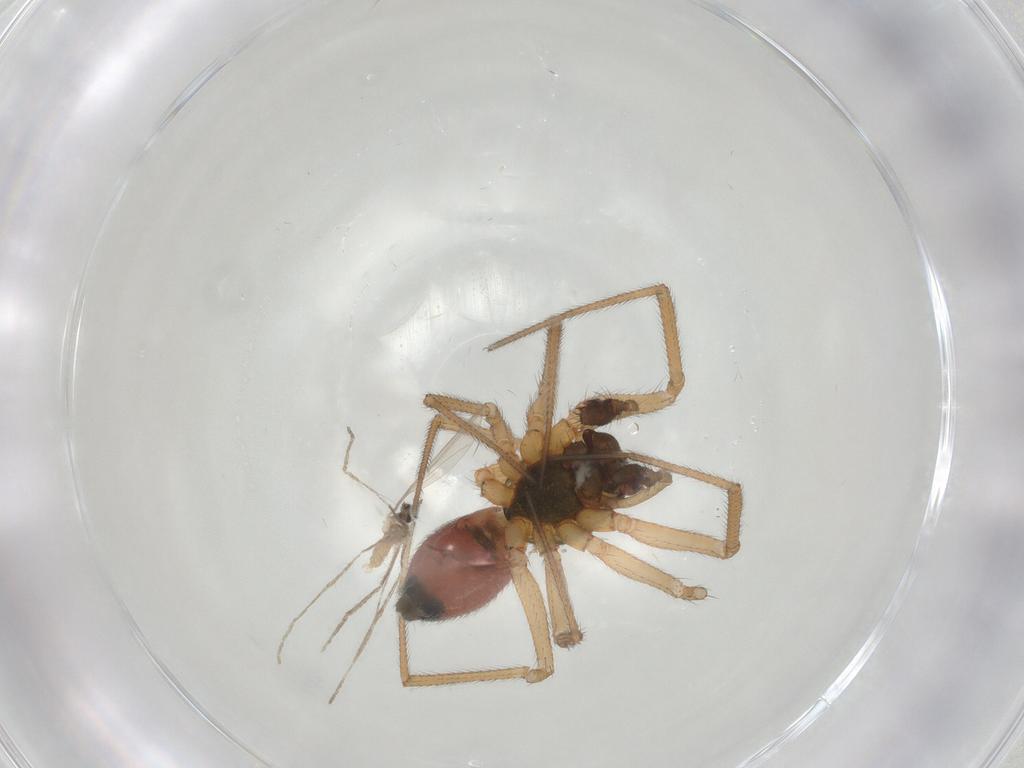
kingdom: Animalia
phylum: Arthropoda
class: Arachnida
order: Araneae
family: Linyphiidae
